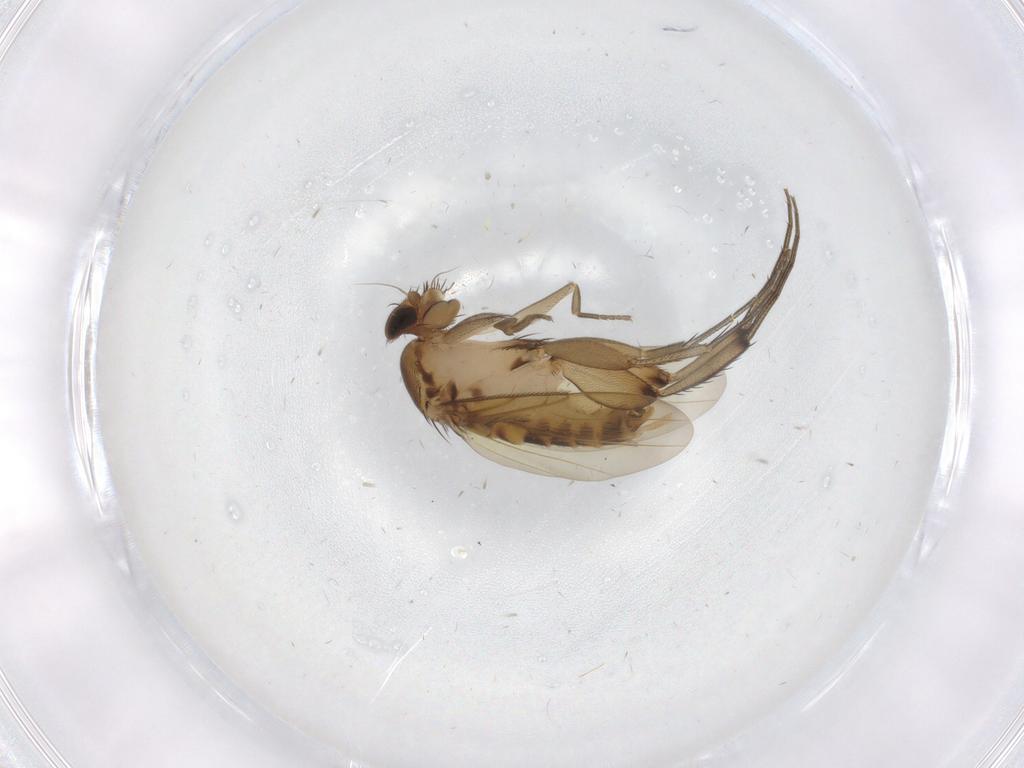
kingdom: Animalia
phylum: Arthropoda
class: Insecta
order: Diptera
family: Phoridae
